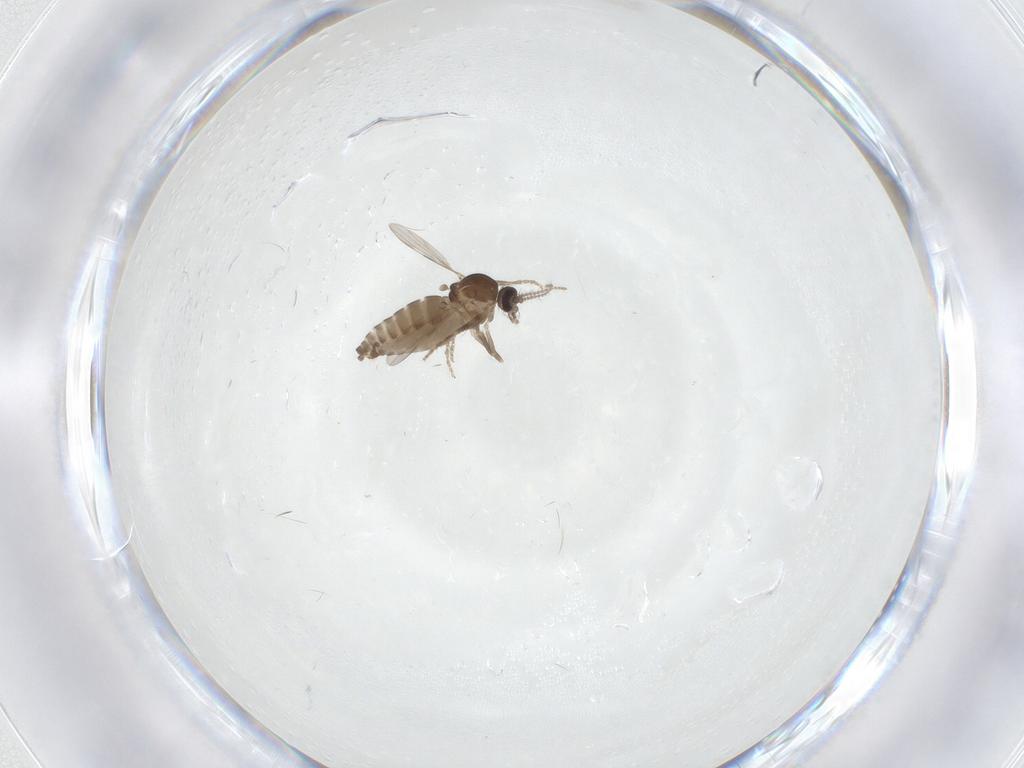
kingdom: Animalia
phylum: Arthropoda
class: Insecta
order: Diptera
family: Ceratopogonidae
